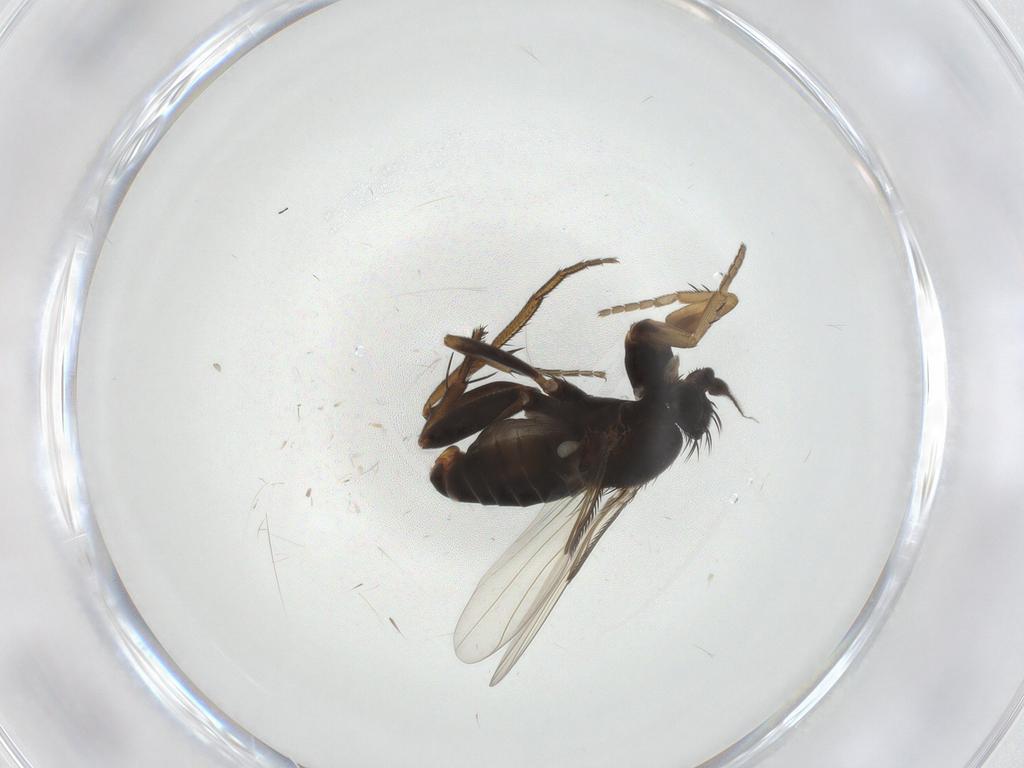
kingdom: Animalia
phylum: Arthropoda
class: Insecta
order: Diptera
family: Phoridae
